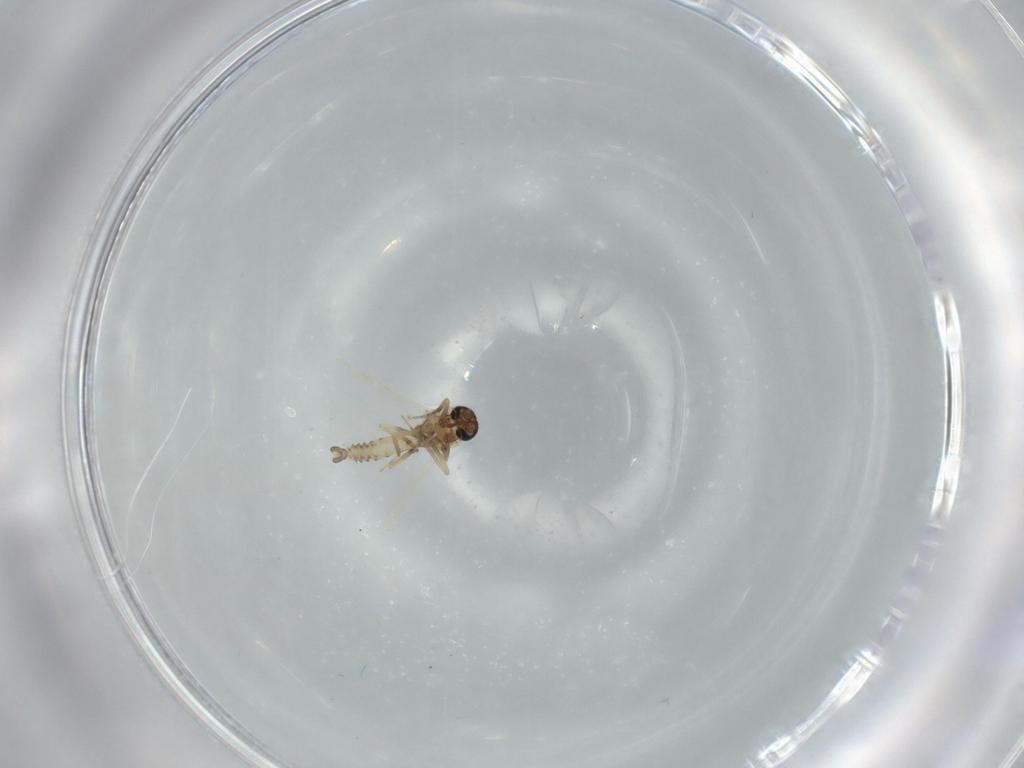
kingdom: Animalia
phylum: Arthropoda
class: Insecta
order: Diptera
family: Ceratopogonidae
